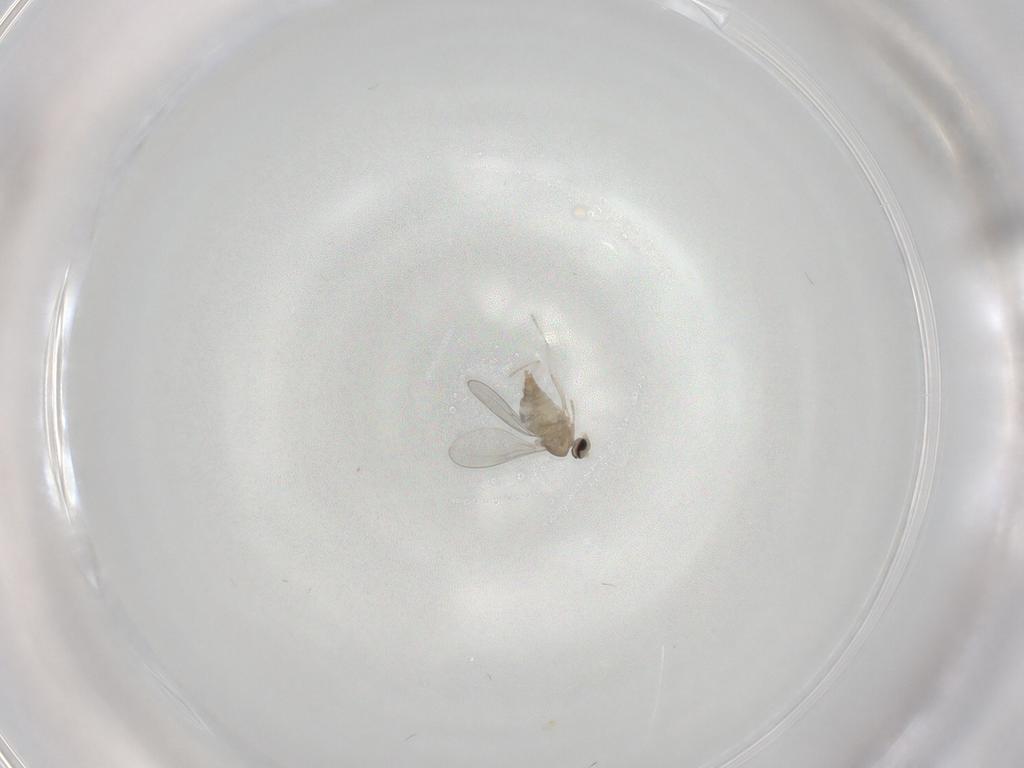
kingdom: Animalia
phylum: Arthropoda
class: Insecta
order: Diptera
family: Cecidomyiidae
